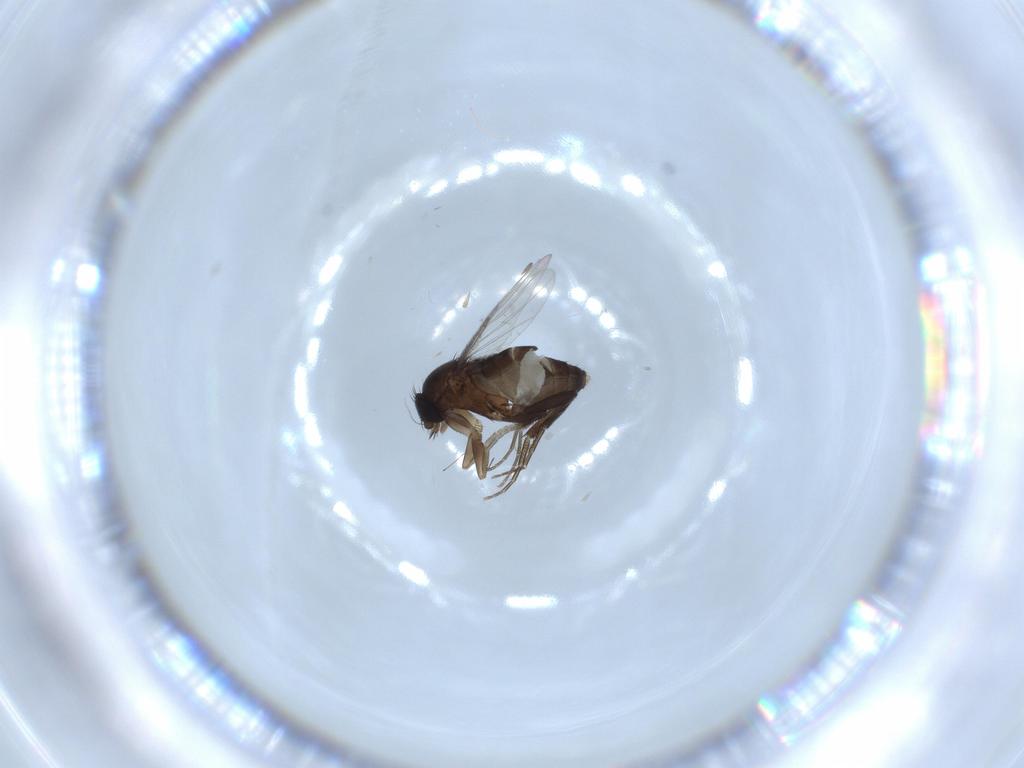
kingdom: Animalia
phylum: Arthropoda
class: Insecta
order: Diptera
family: Phoridae
